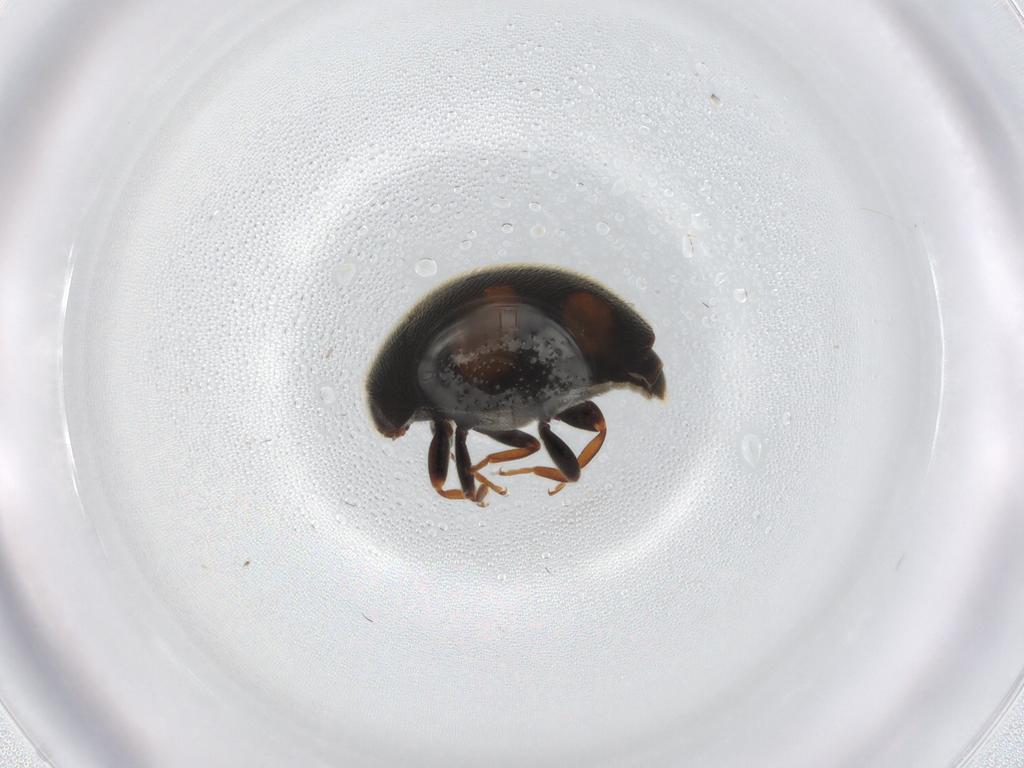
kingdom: Animalia
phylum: Arthropoda
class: Insecta
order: Coleoptera
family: Coccinellidae
